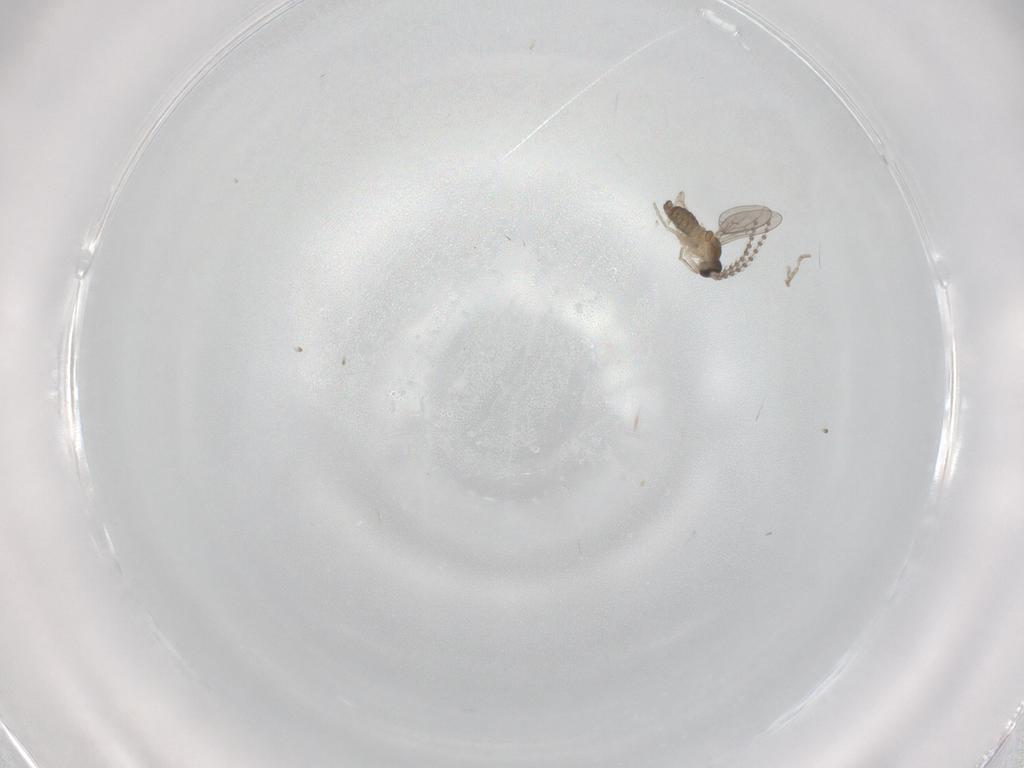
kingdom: Animalia
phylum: Arthropoda
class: Insecta
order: Diptera
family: Cecidomyiidae
